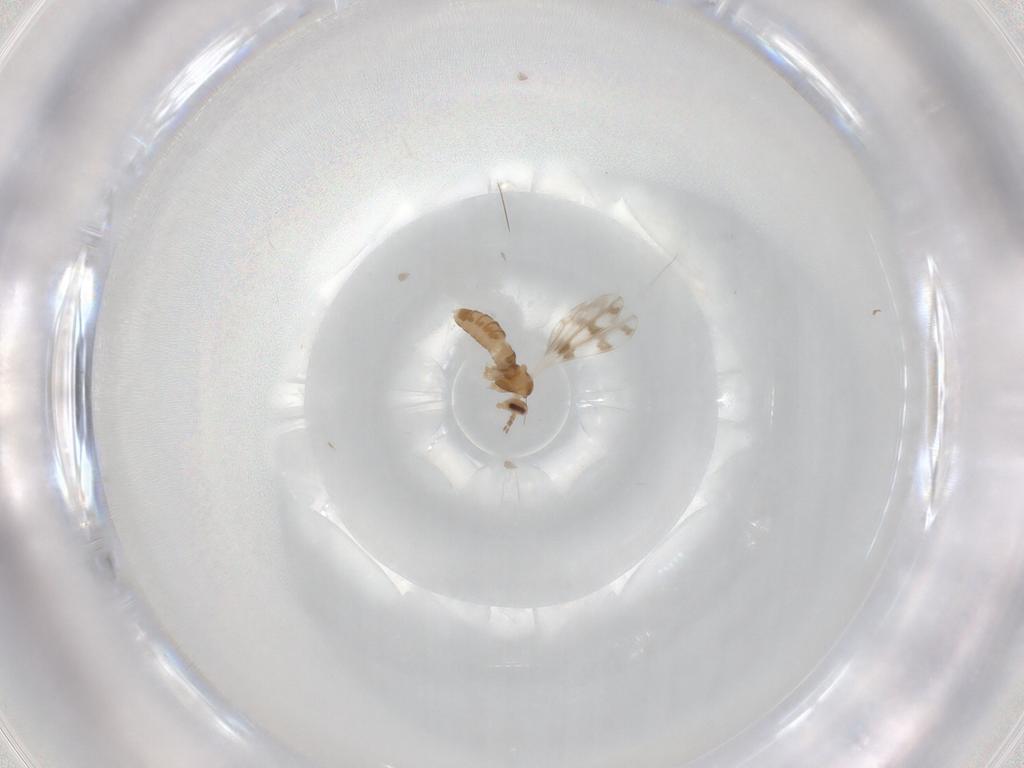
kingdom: Animalia
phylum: Arthropoda
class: Insecta
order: Diptera
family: Cecidomyiidae
